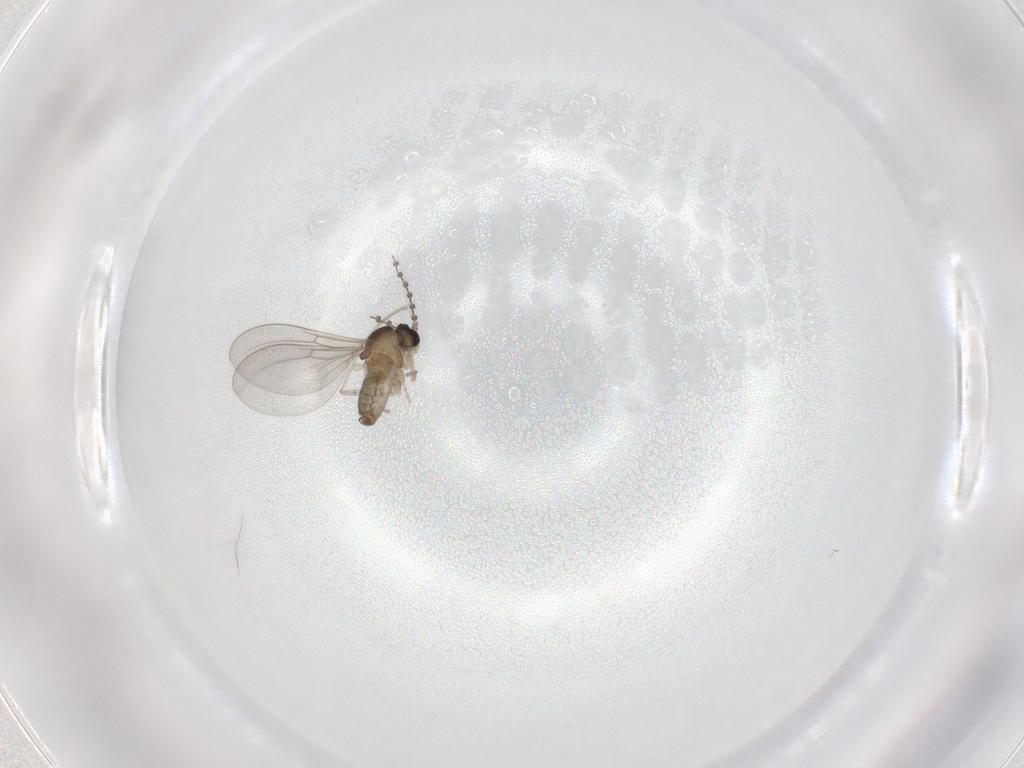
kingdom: Animalia
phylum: Arthropoda
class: Insecta
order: Diptera
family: Cecidomyiidae
